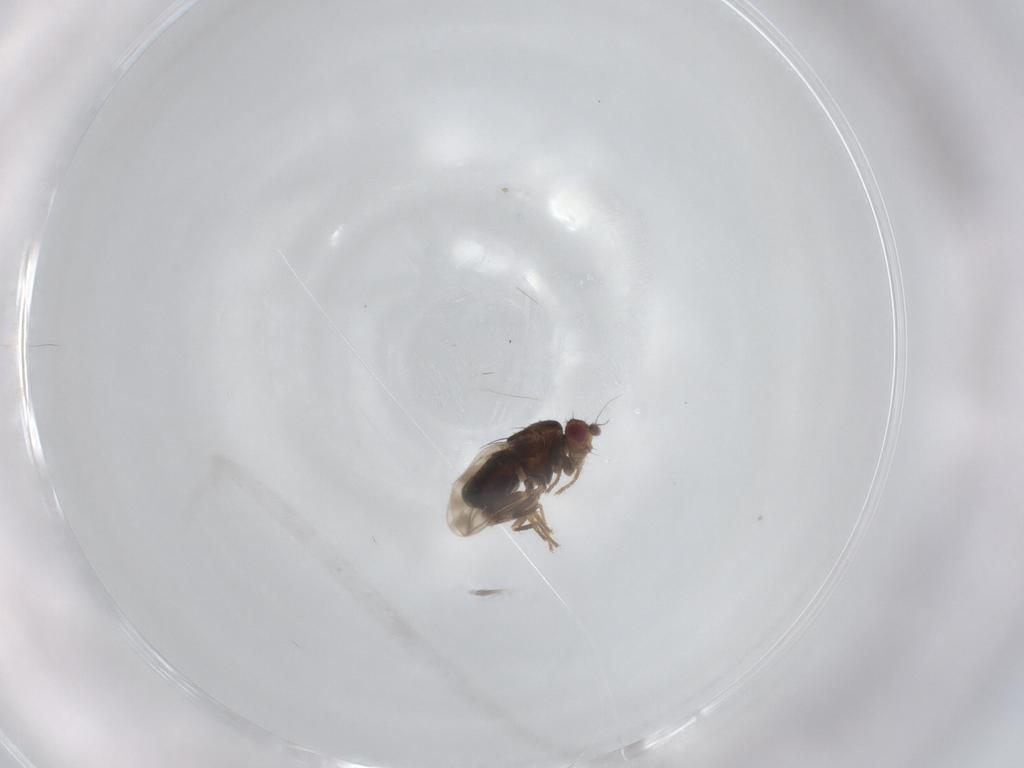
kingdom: Animalia
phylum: Arthropoda
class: Insecta
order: Diptera
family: Sphaeroceridae
